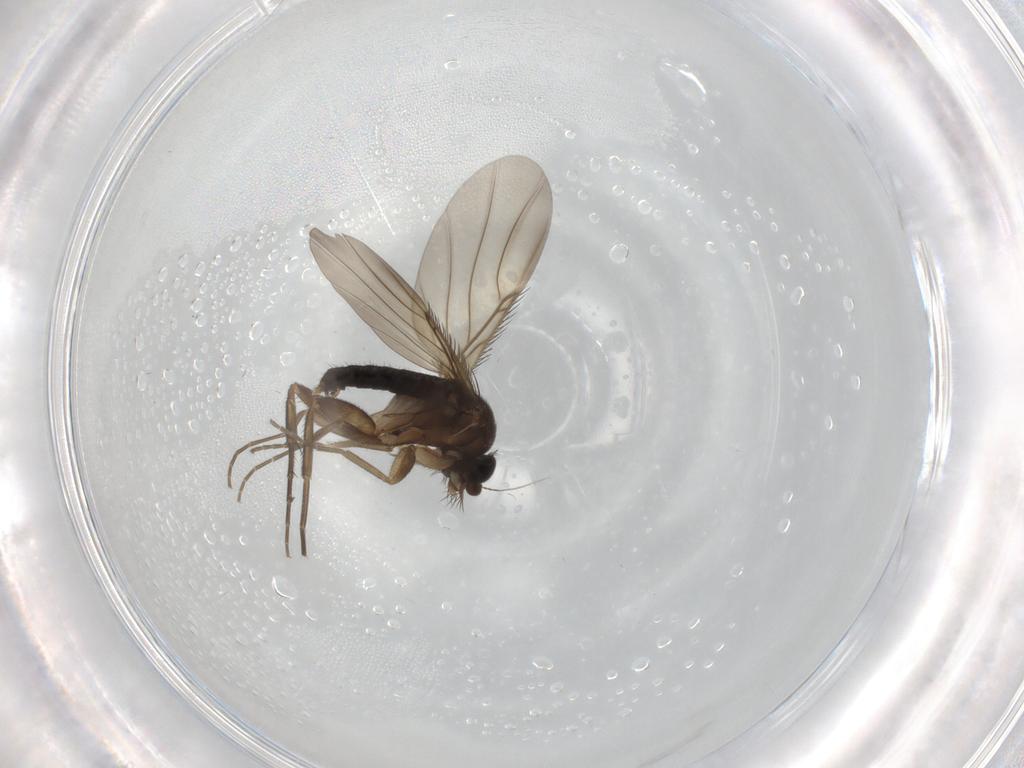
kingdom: Animalia
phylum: Arthropoda
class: Insecta
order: Diptera
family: Phoridae
